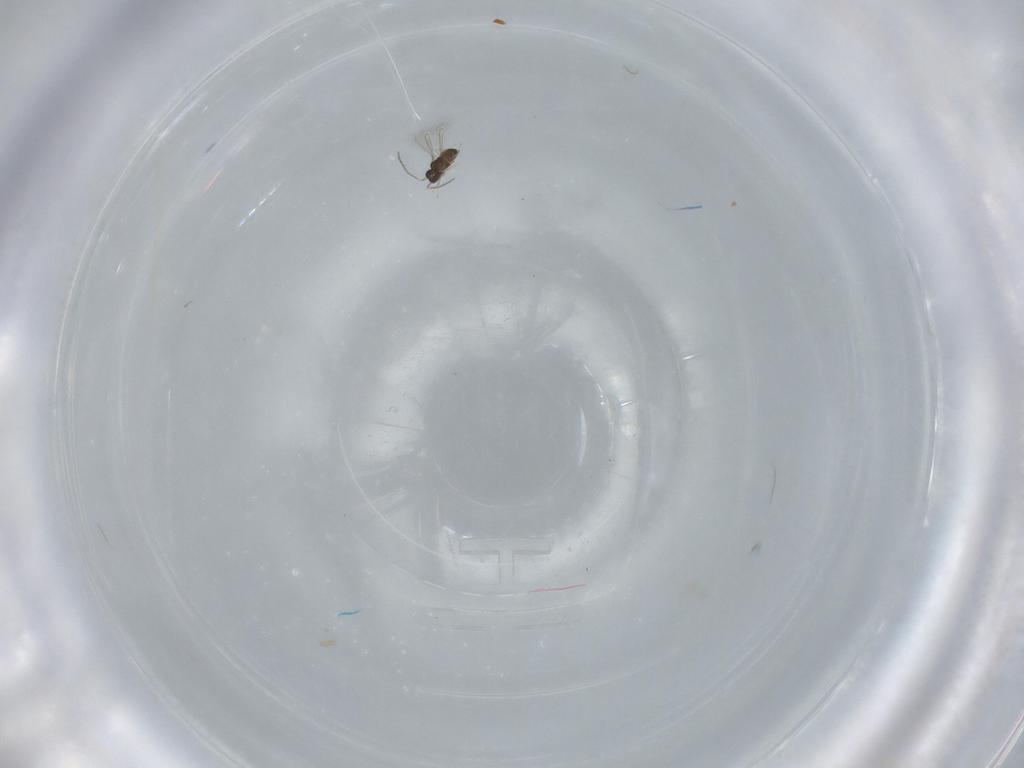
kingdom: Animalia
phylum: Arthropoda
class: Insecta
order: Hymenoptera
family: Mymaridae
